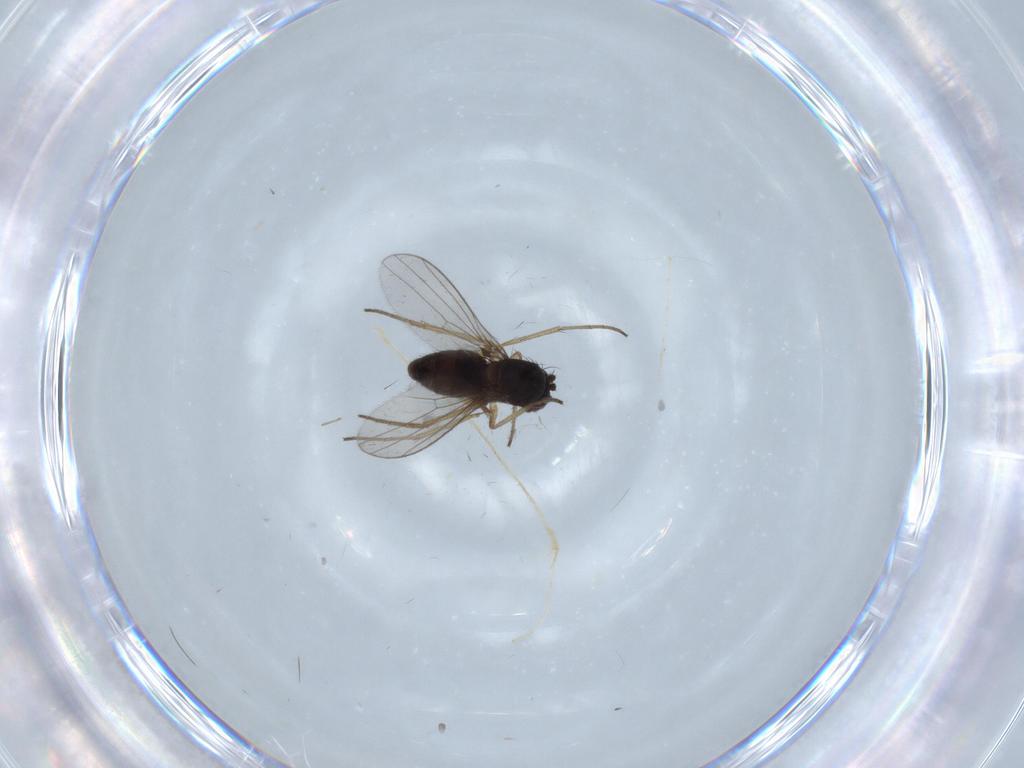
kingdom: Animalia
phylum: Arthropoda
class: Insecta
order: Diptera
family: Dolichopodidae
